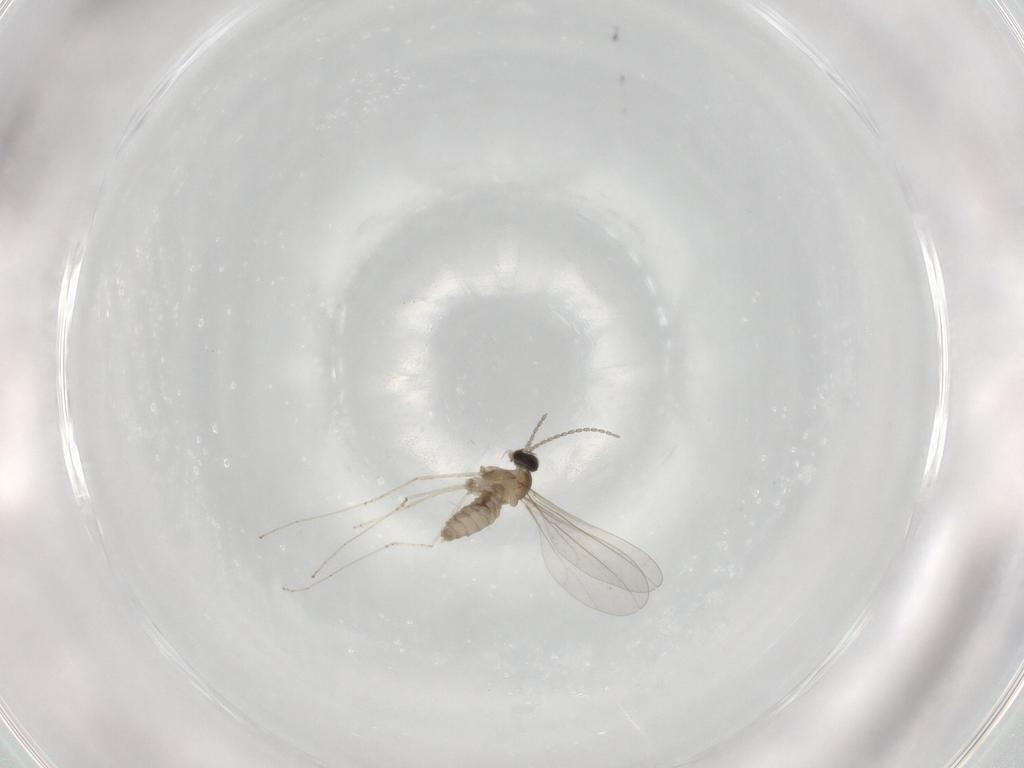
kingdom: Animalia
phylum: Arthropoda
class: Insecta
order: Diptera
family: Cecidomyiidae
